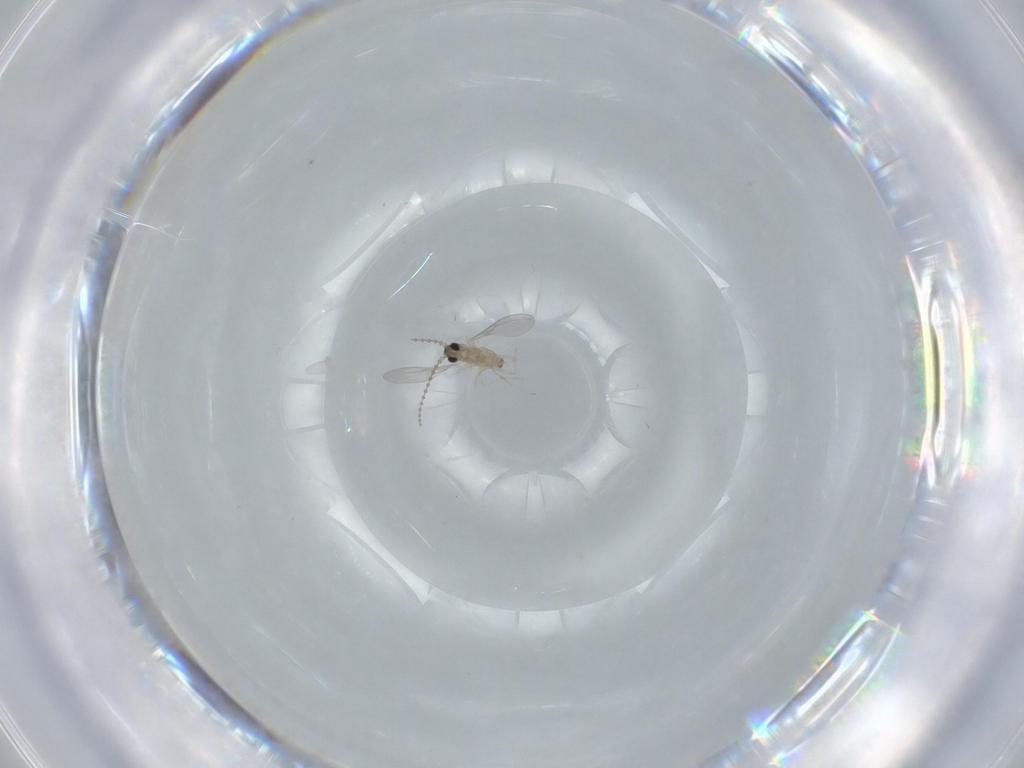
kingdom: Animalia
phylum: Arthropoda
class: Insecta
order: Diptera
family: Cecidomyiidae
